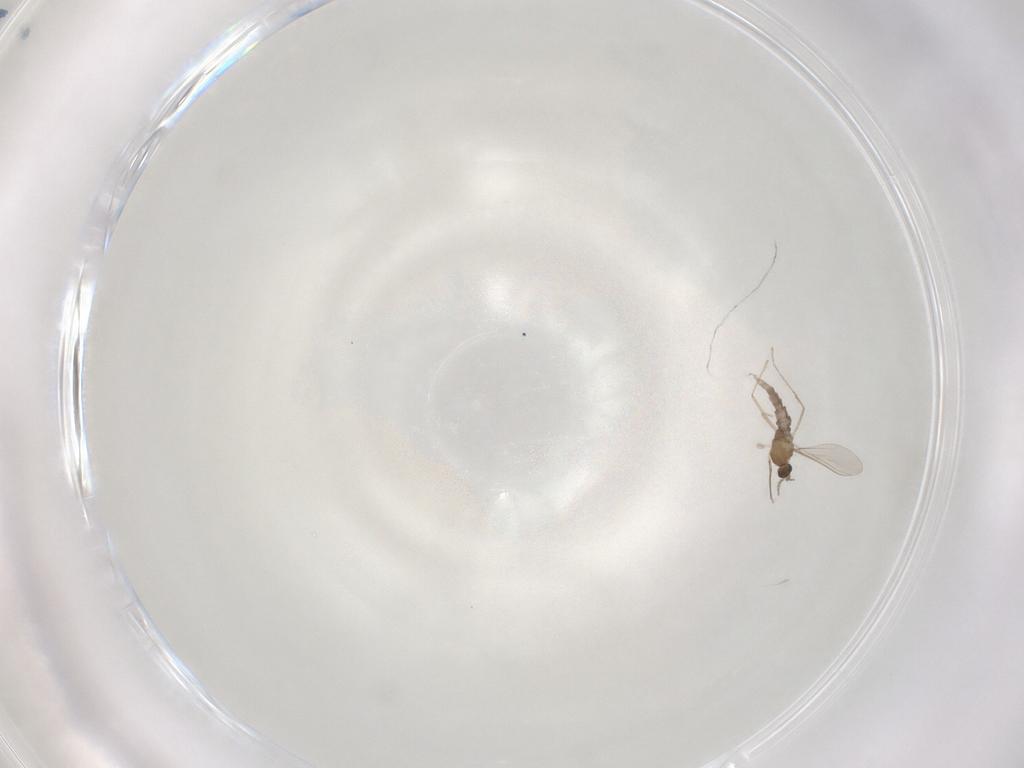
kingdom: Animalia
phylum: Arthropoda
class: Insecta
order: Diptera
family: Cecidomyiidae
